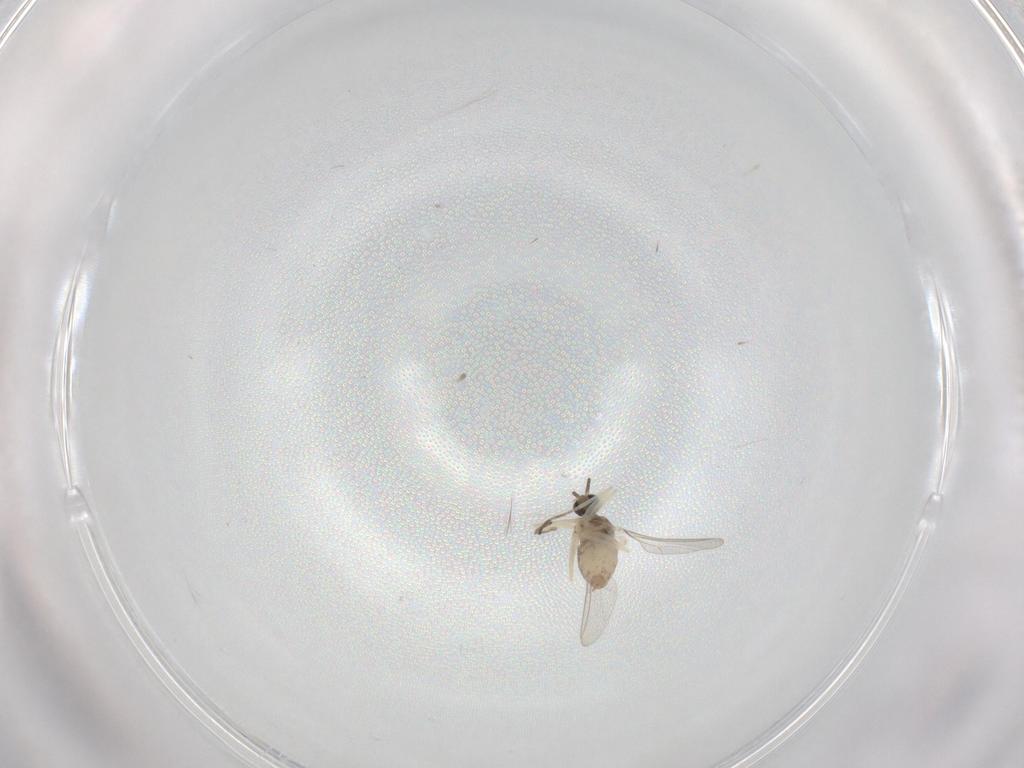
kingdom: Animalia
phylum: Arthropoda
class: Insecta
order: Diptera
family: Cecidomyiidae
